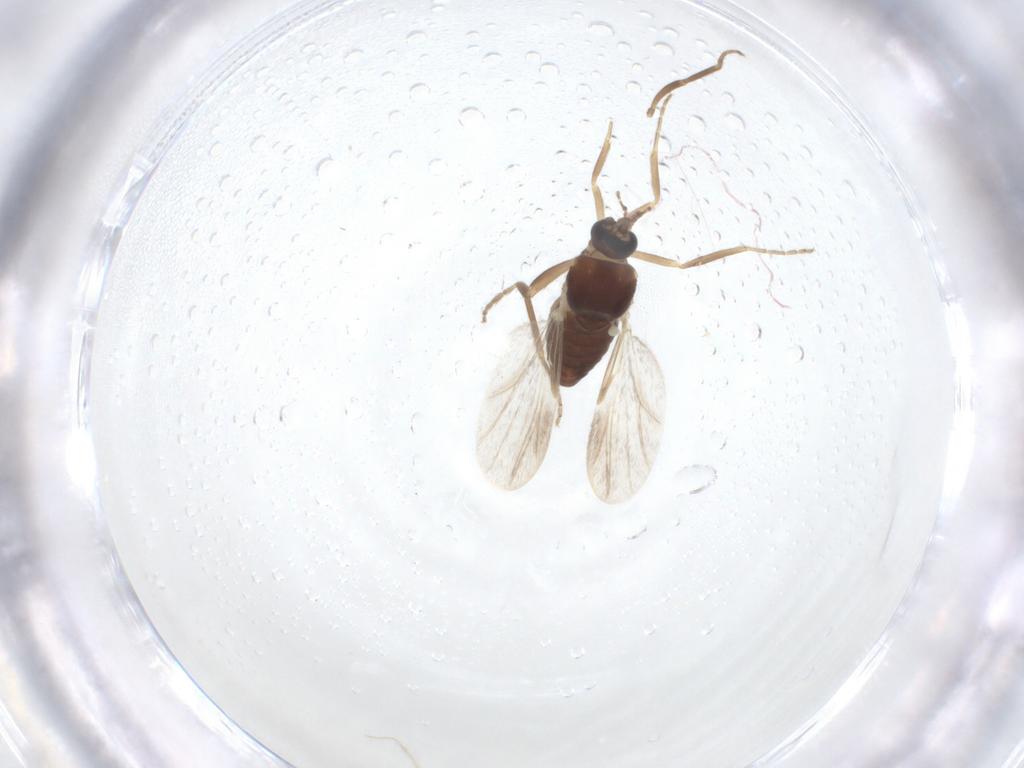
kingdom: Animalia
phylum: Arthropoda
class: Insecta
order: Diptera
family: Ceratopogonidae
